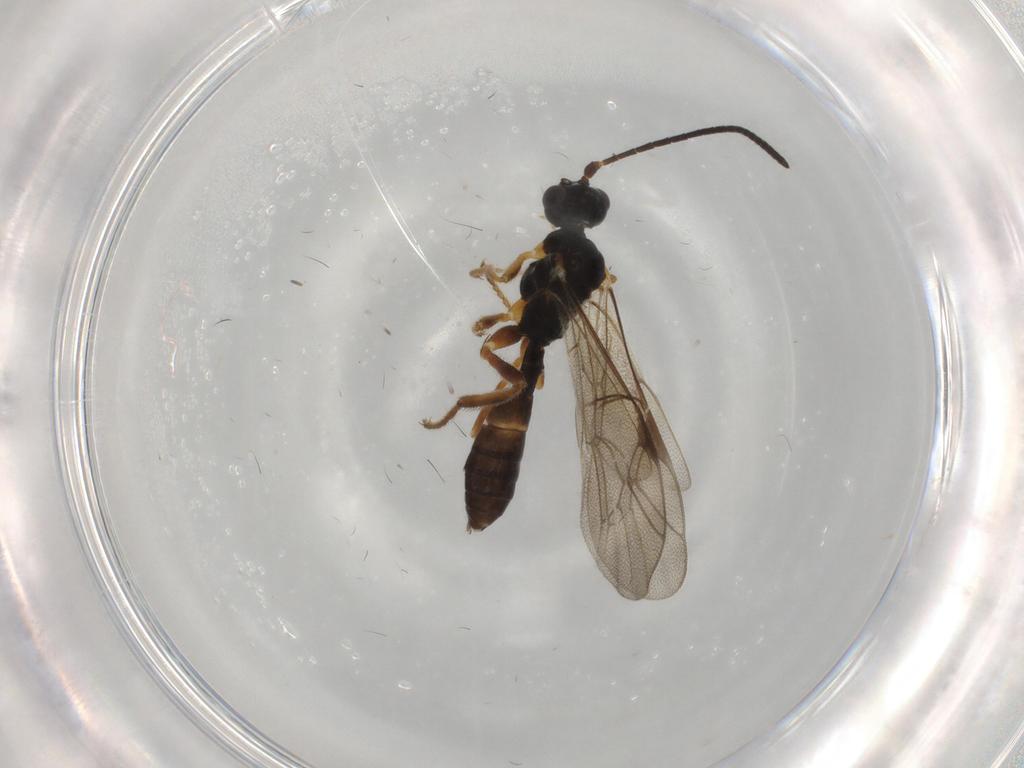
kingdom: Animalia
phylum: Arthropoda
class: Insecta
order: Hymenoptera
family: Ichneumonidae
